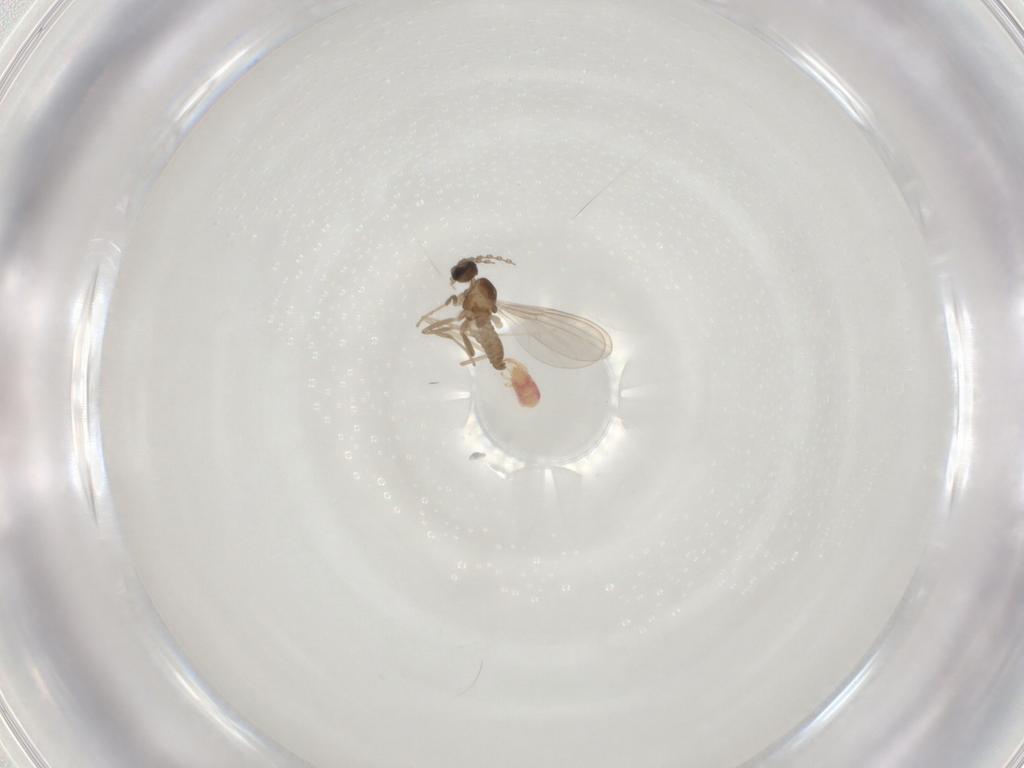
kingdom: Animalia
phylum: Arthropoda
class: Insecta
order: Diptera
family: Cecidomyiidae
